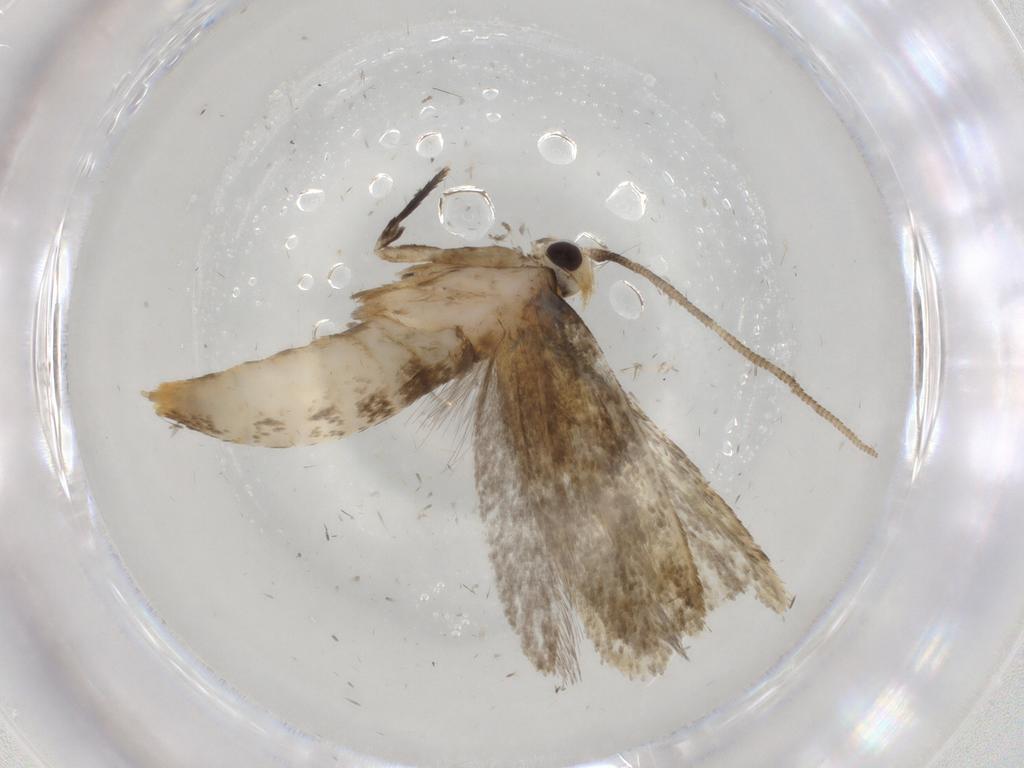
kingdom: Animalia
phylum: Arthropoda
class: Insecta
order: Lepidoptera
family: Tineidae
